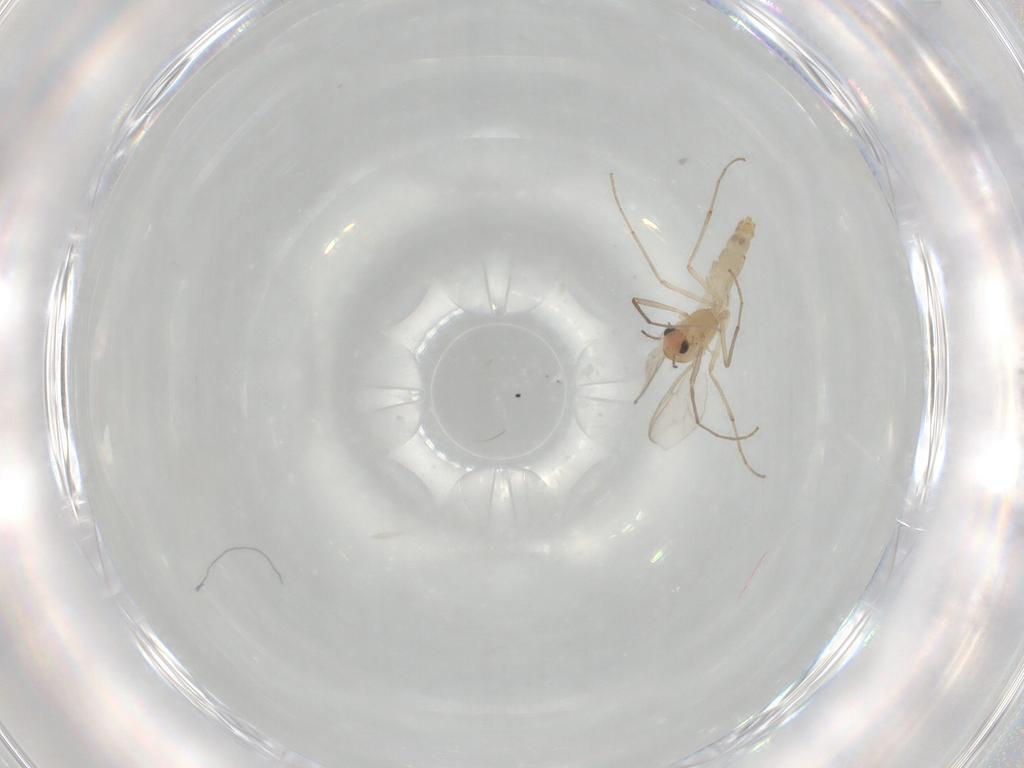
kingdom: Animalia
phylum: Arthropoda
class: Insecta
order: Diptera
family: Chironomidae
